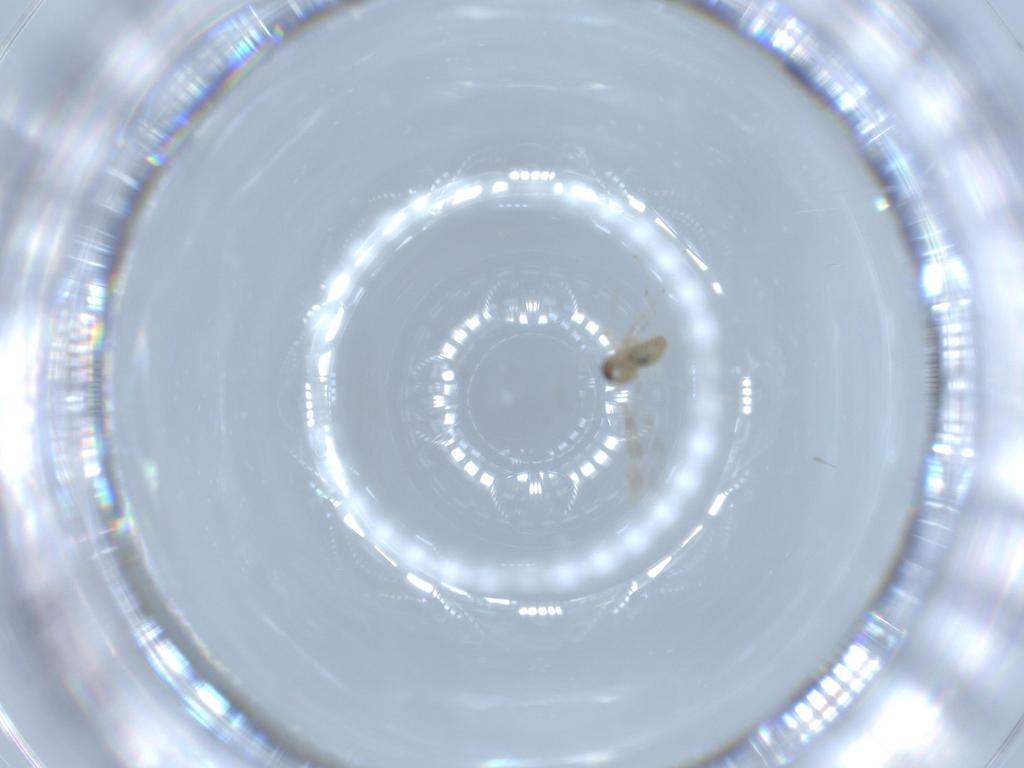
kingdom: Animalia
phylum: Arthropoda
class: Insecta
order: Diptera
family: Cecidomyiidae
